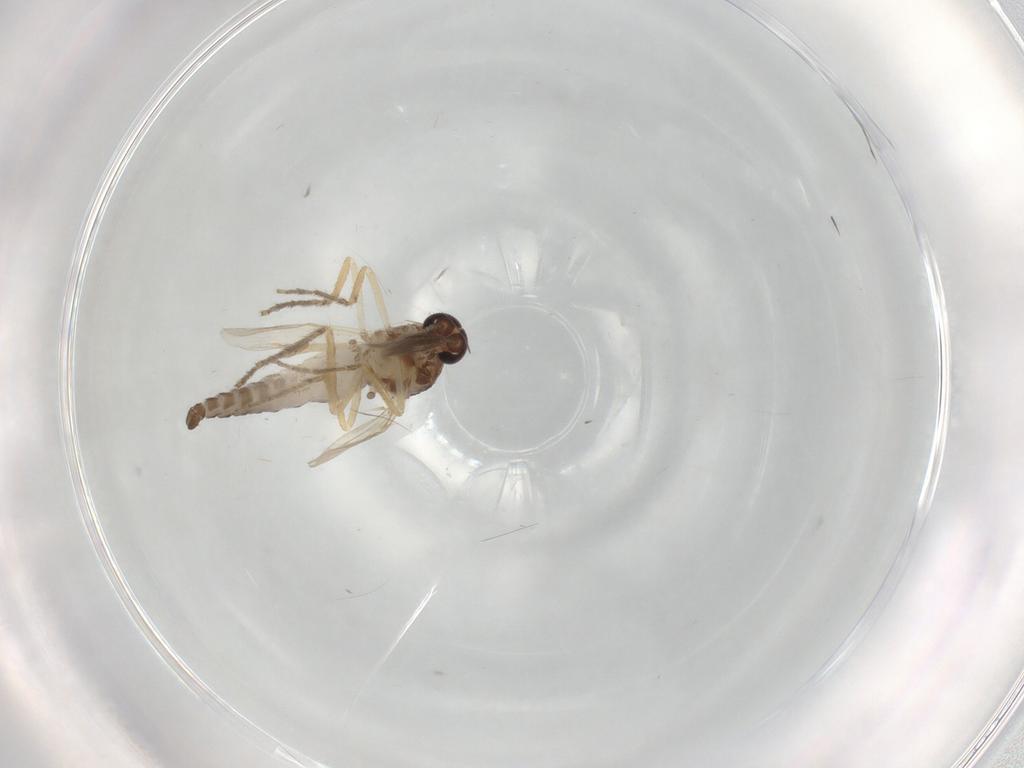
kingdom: Animalia
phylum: Arthropoda
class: Insecta
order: Diptera
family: Ceratopogonidae
